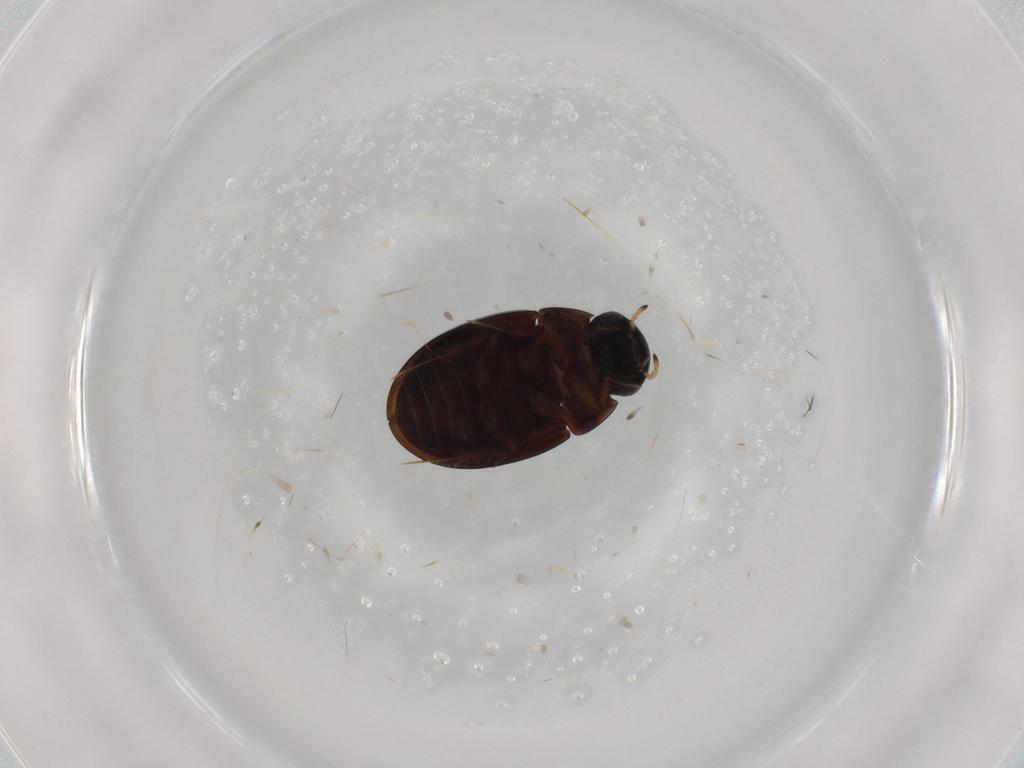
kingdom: Animalia
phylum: Arthropoda
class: Insecta
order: Coleoptera
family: Hydrophilidae
